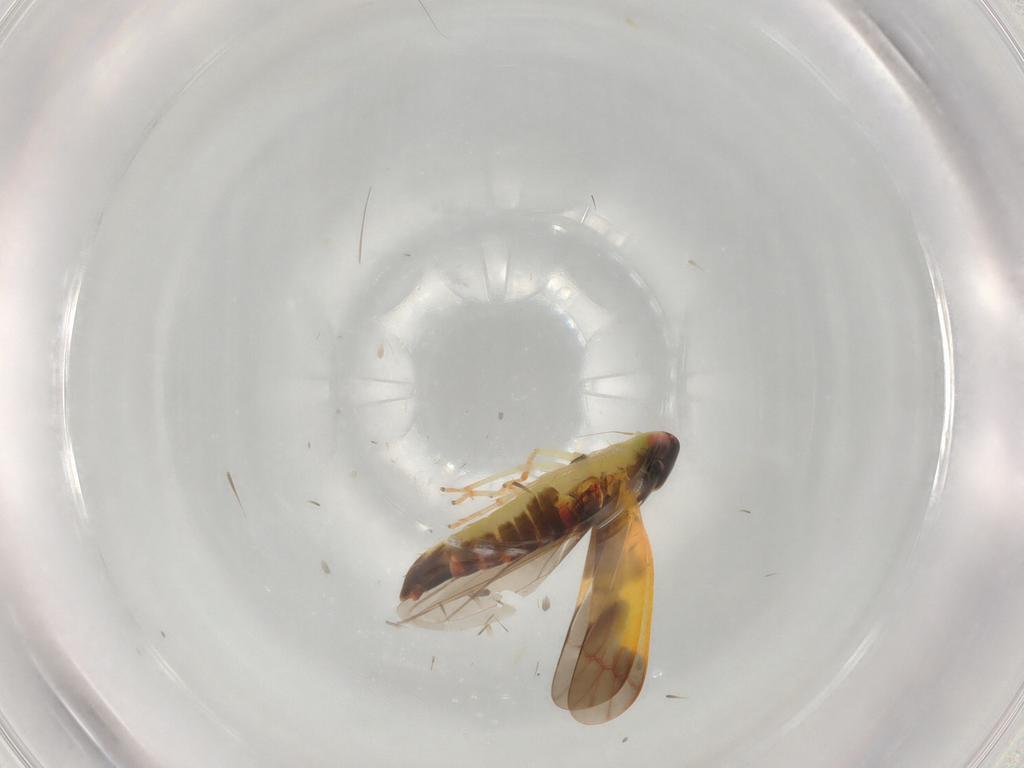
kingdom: Animalia
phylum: Arthropoda
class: Insecta
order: Hemiptera
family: Cicadellidae
